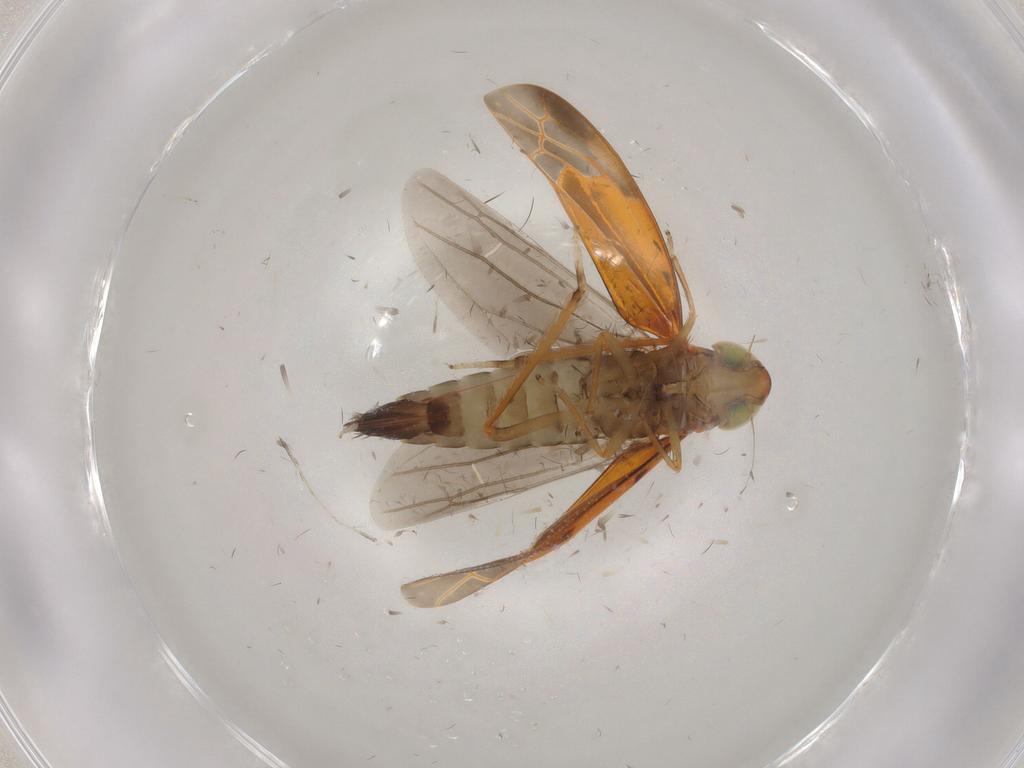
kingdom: Animalia
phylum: Arthropoda
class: Insecta
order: Hemiptera
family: Cicadellidae
